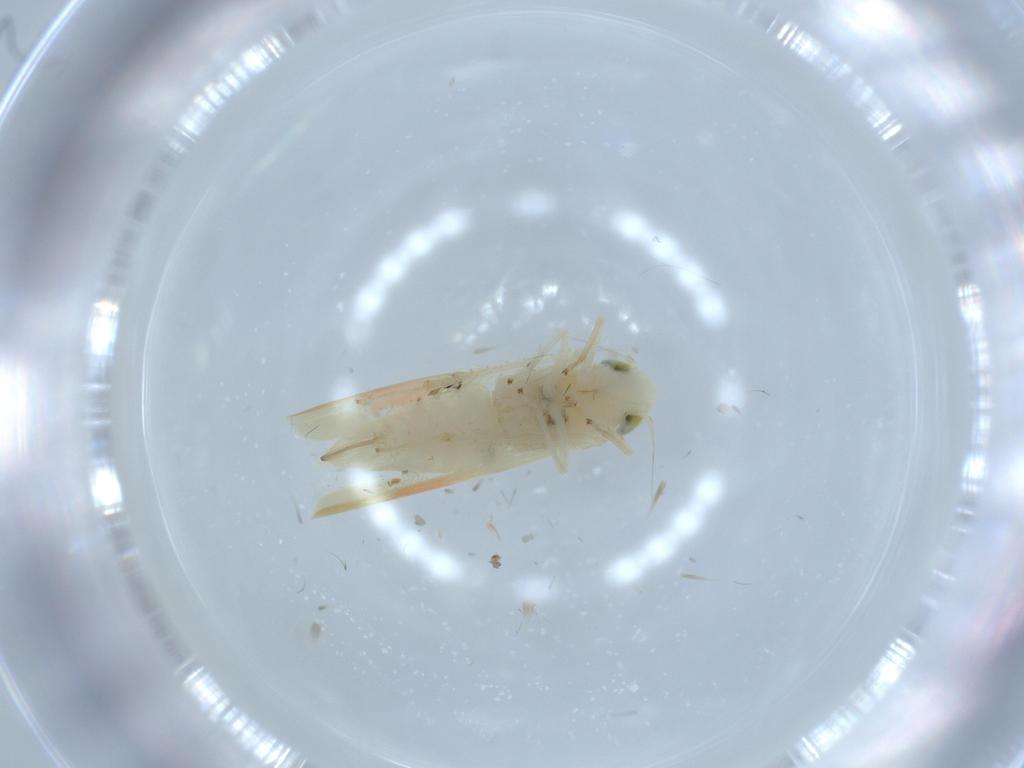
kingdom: Animalia
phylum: Arthropoda
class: Insecta
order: Hemiptera
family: Cicadellidae
